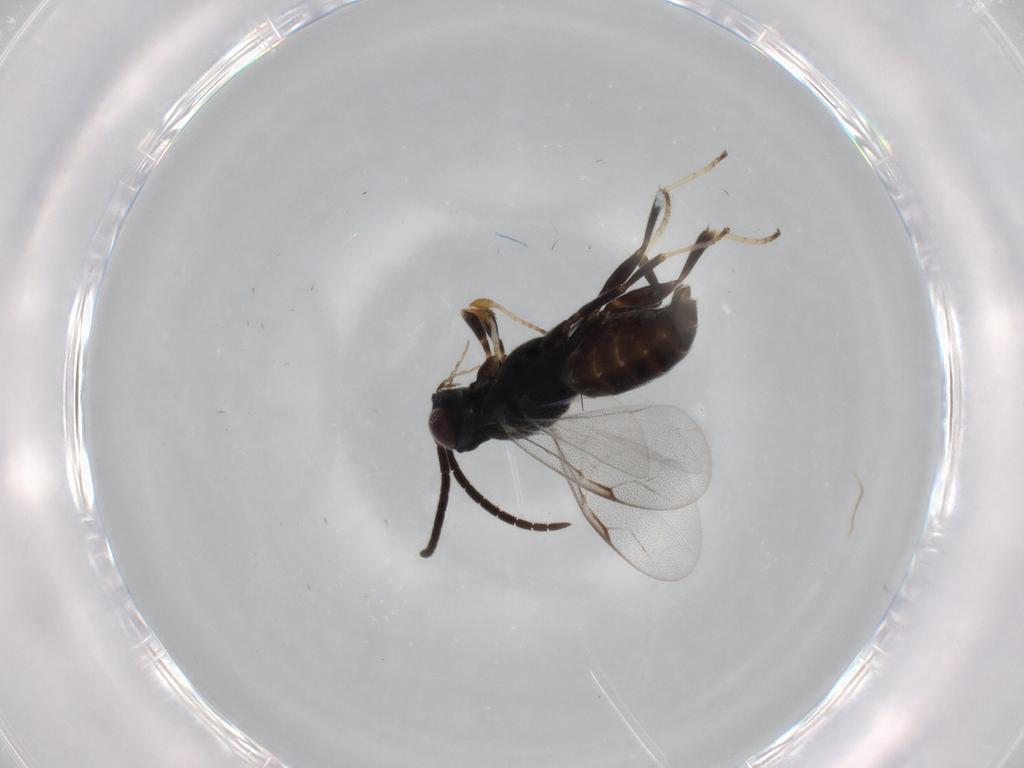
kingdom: Animalia
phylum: Arthropoda
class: Insecta
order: Hymenoptera
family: Dryinidae
